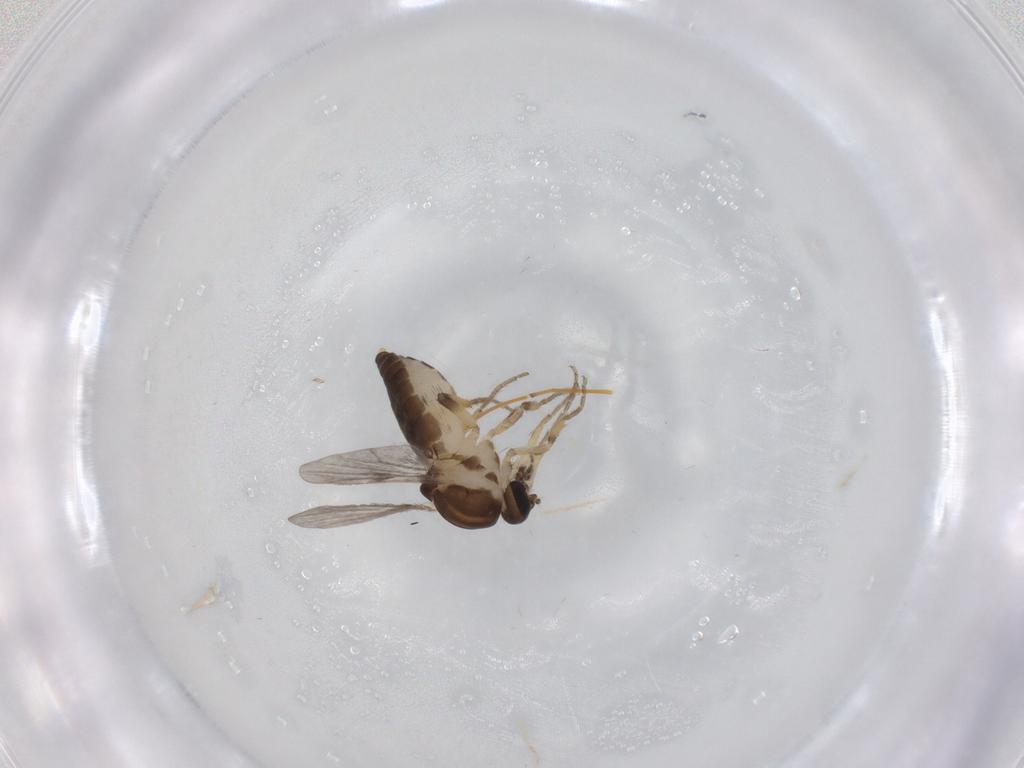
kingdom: Animalia
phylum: Arthropoda
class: Insecta
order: Diptera
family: Ceratopogonidae
